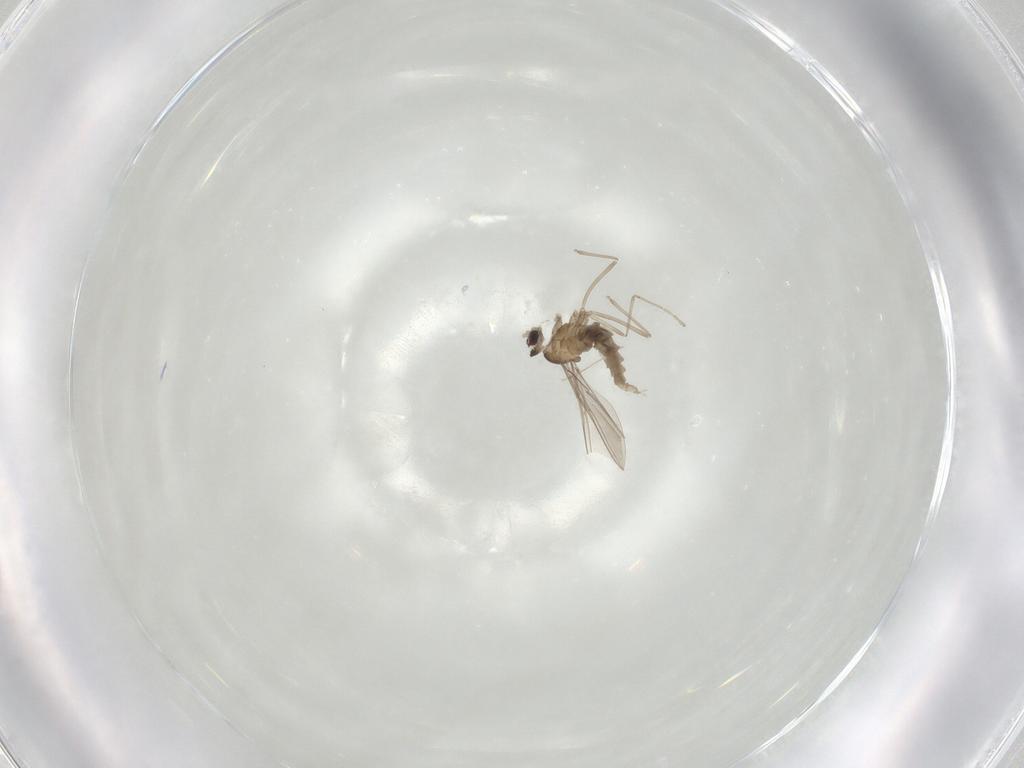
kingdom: Animalia
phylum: Arthropoda
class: Insecta
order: Diptera
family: Cecidomyiidae
